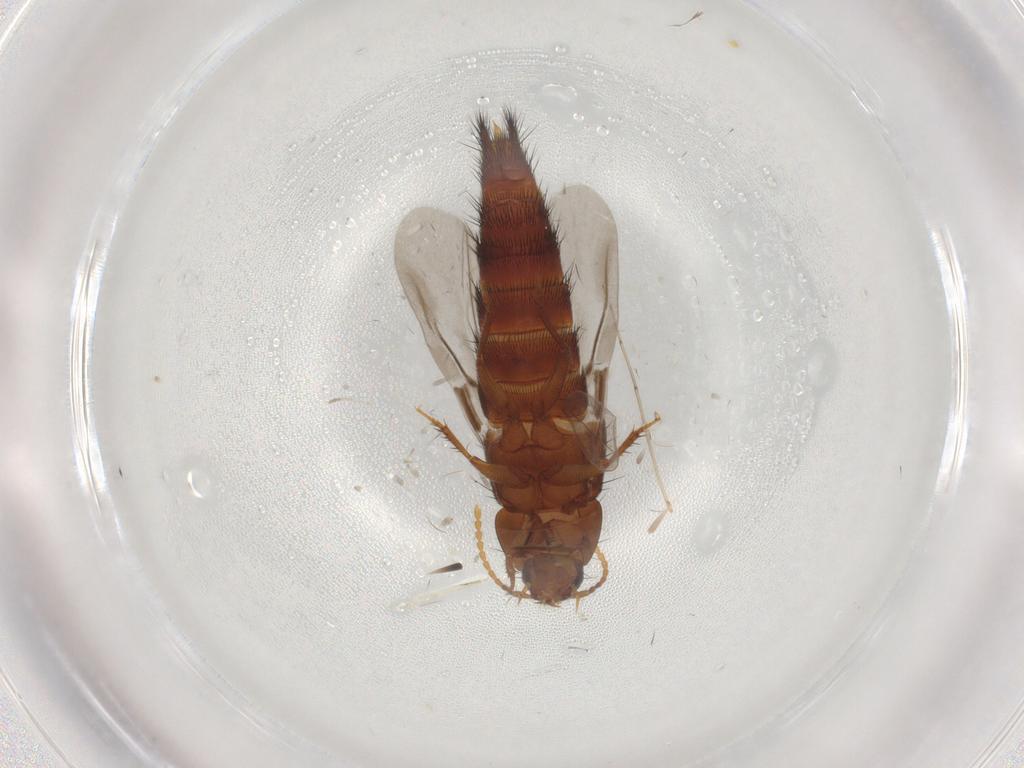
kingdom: Animalia
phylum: Arthropoda
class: Insecta
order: Coleoptera
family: Staphylinidae
